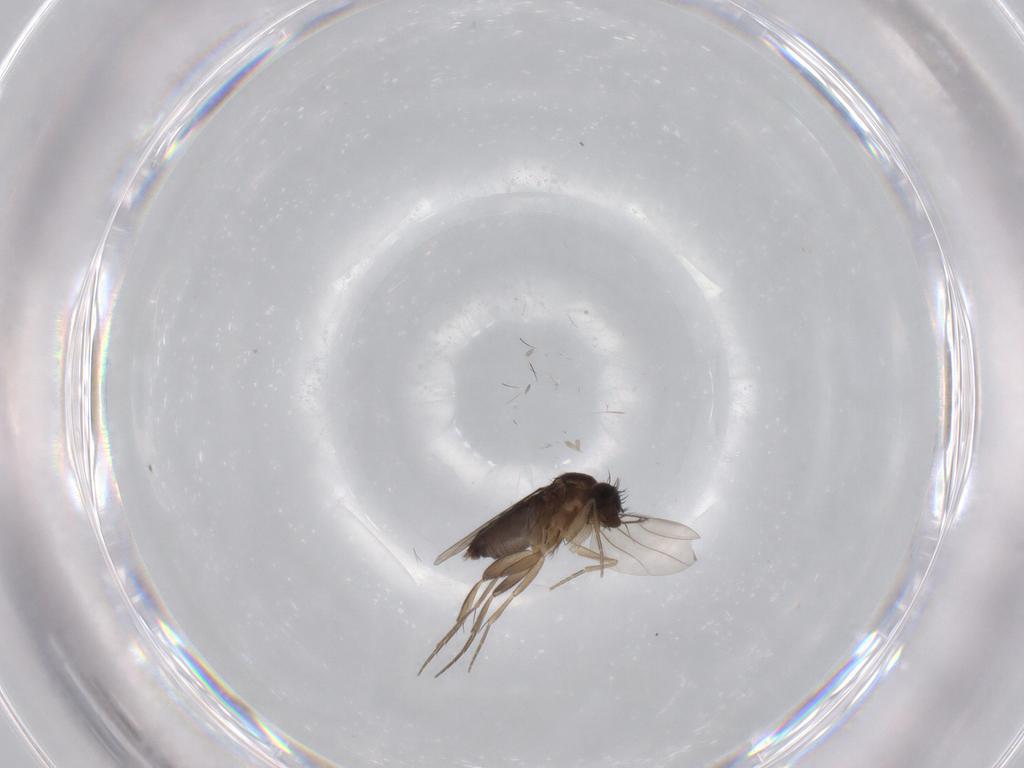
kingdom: Animalia
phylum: Arthropoda
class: Insecta
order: Diptera
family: Phoridae
